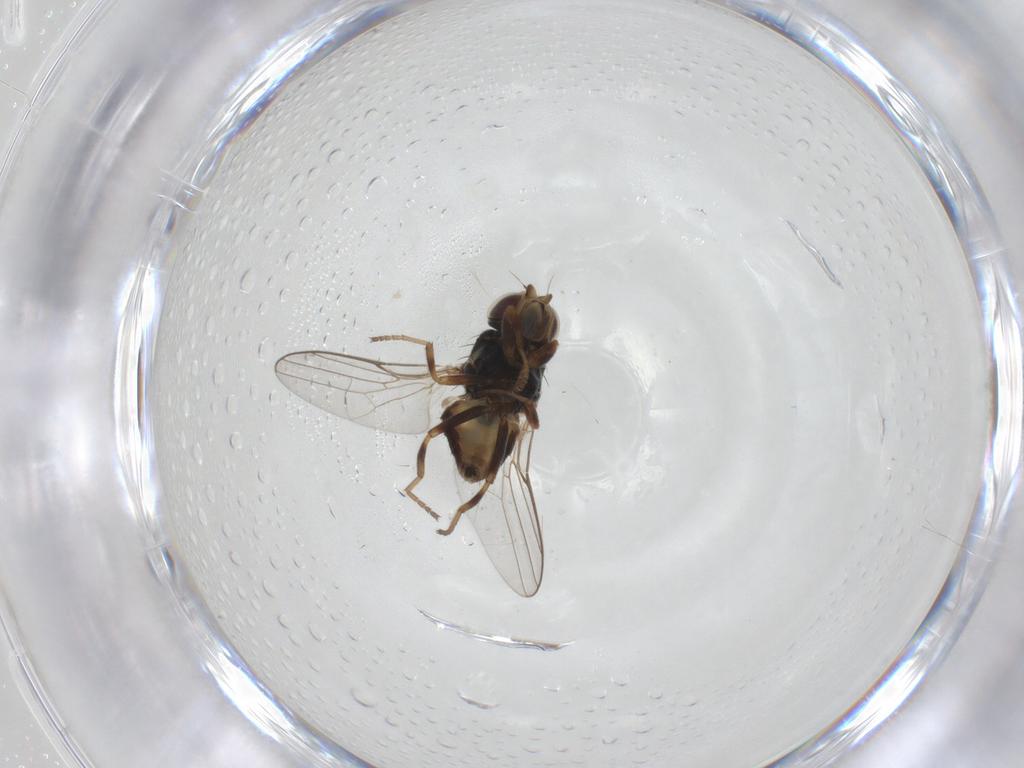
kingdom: Animalia
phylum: Arthropoda
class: Insecta
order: Diptera
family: Chloropidae
